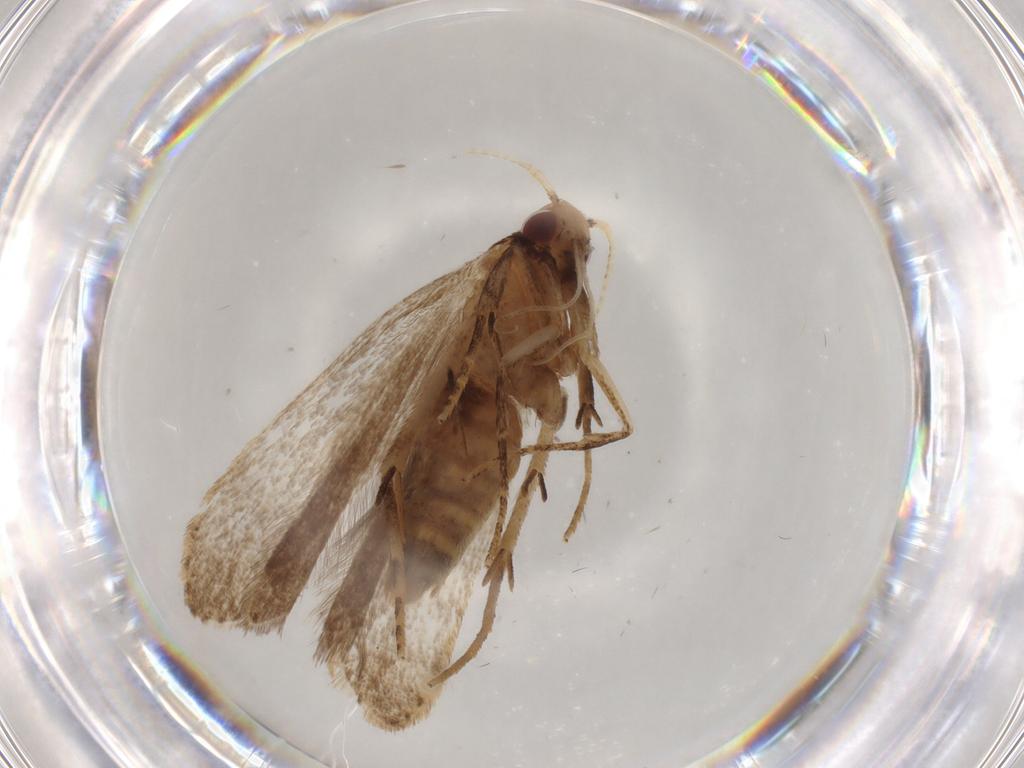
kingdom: Animalia
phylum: Arthropoda
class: Insecta
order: Lepidoptera
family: Gelechiidae
